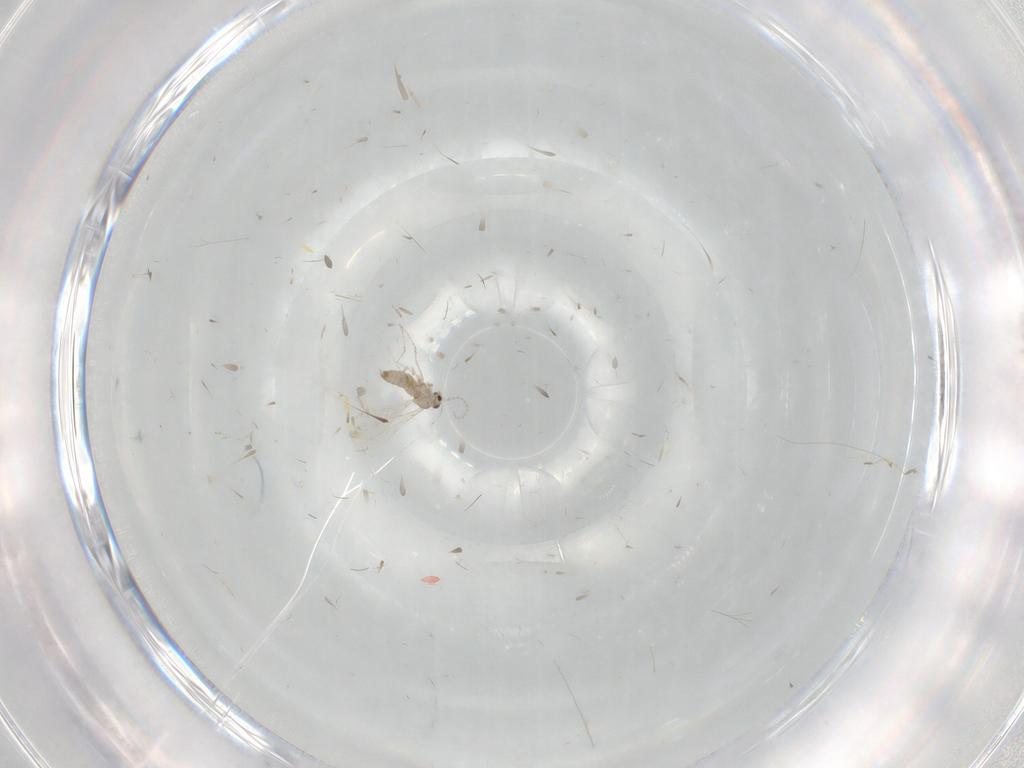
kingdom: Animalia
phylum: Arthropoda
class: Insecta
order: Diptera
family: Cecidomyiidae
